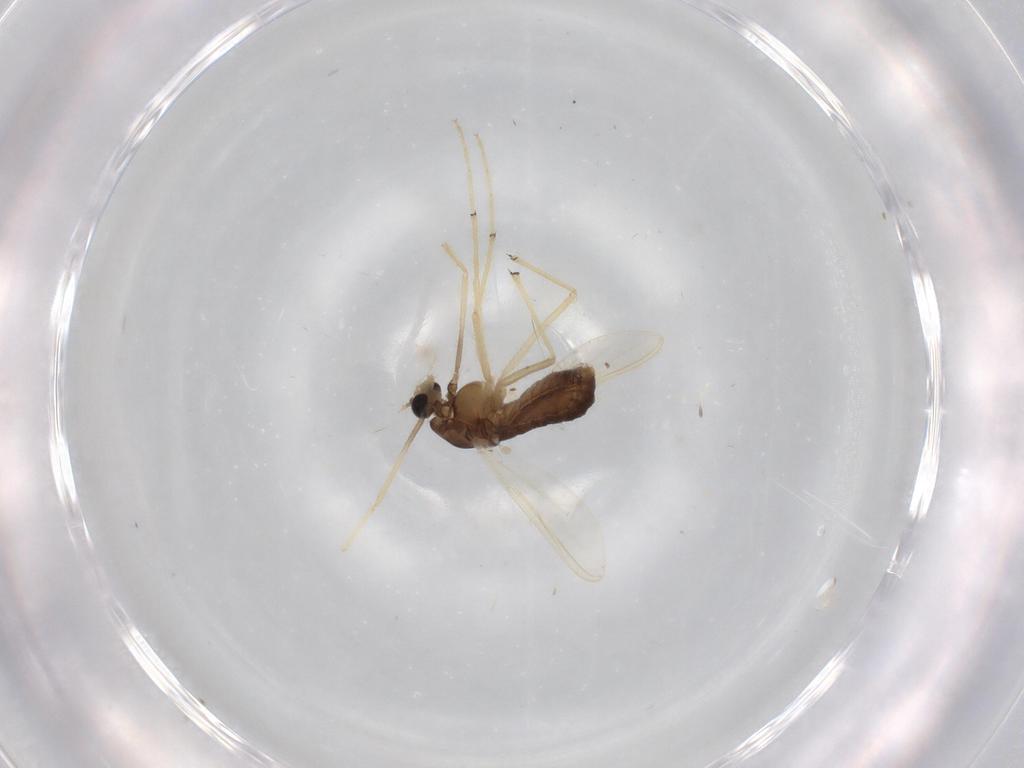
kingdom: Animalia
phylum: Arthropoda
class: Insecta
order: Diptera
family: Chironomidae
